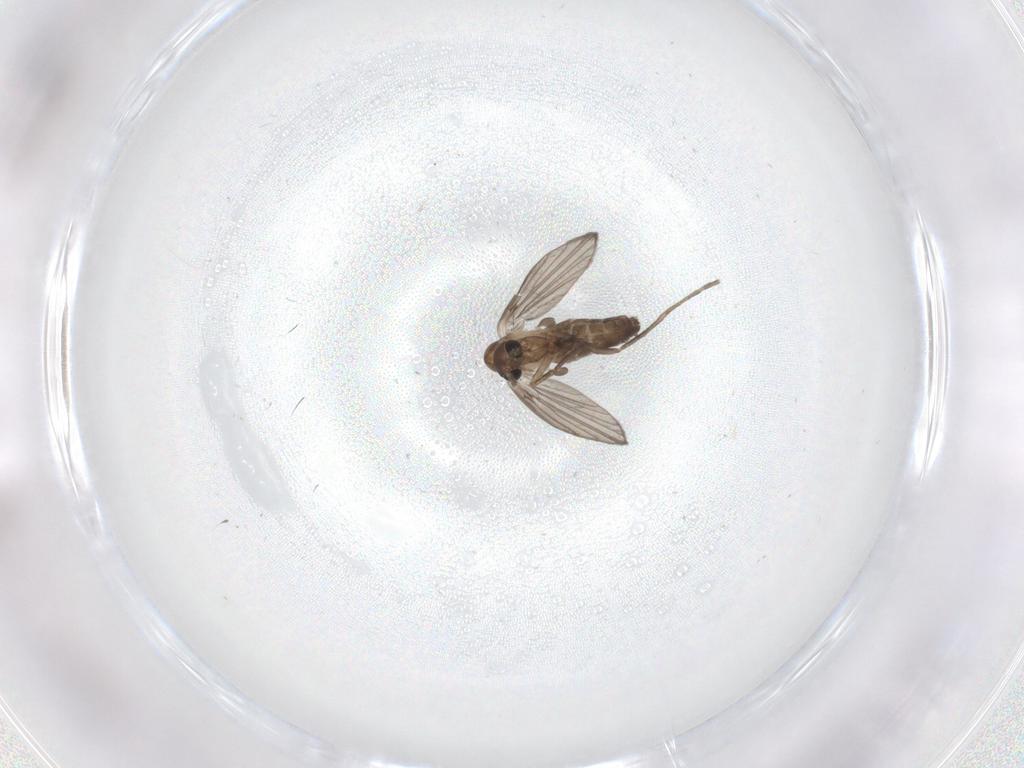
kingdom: Animalia
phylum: Arthropoda
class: Insecta
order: Diptera
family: Psychodidae
